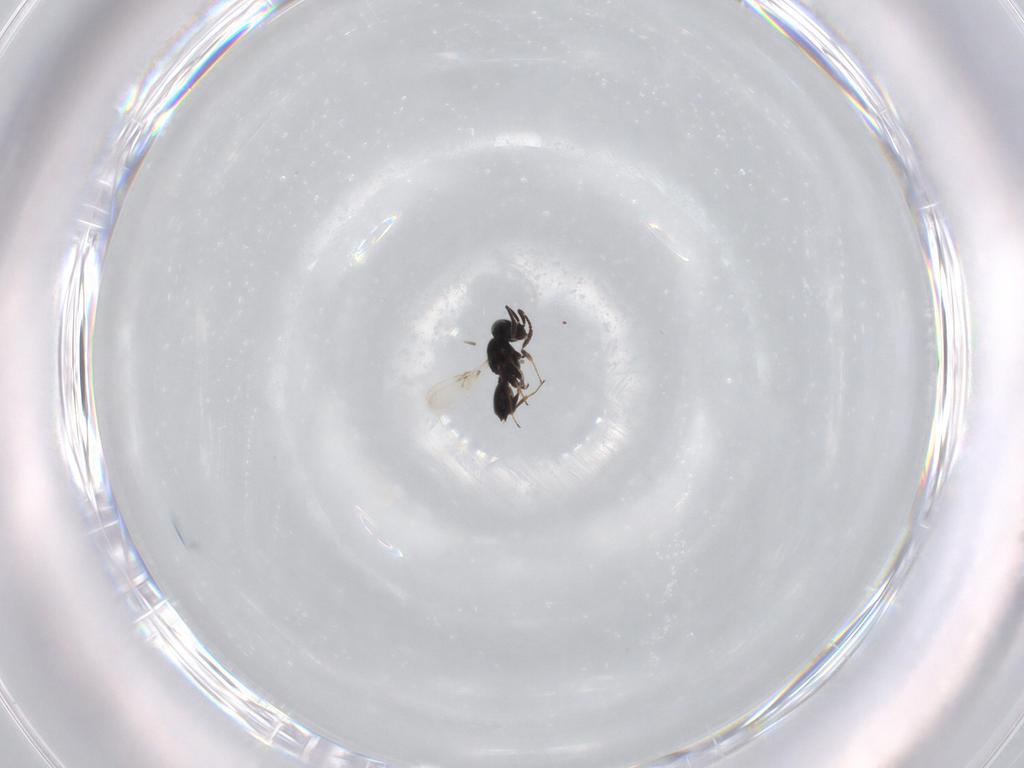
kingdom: Animalia
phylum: Arthropoda
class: Insecta
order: Hymenoptera
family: Scelionidae
